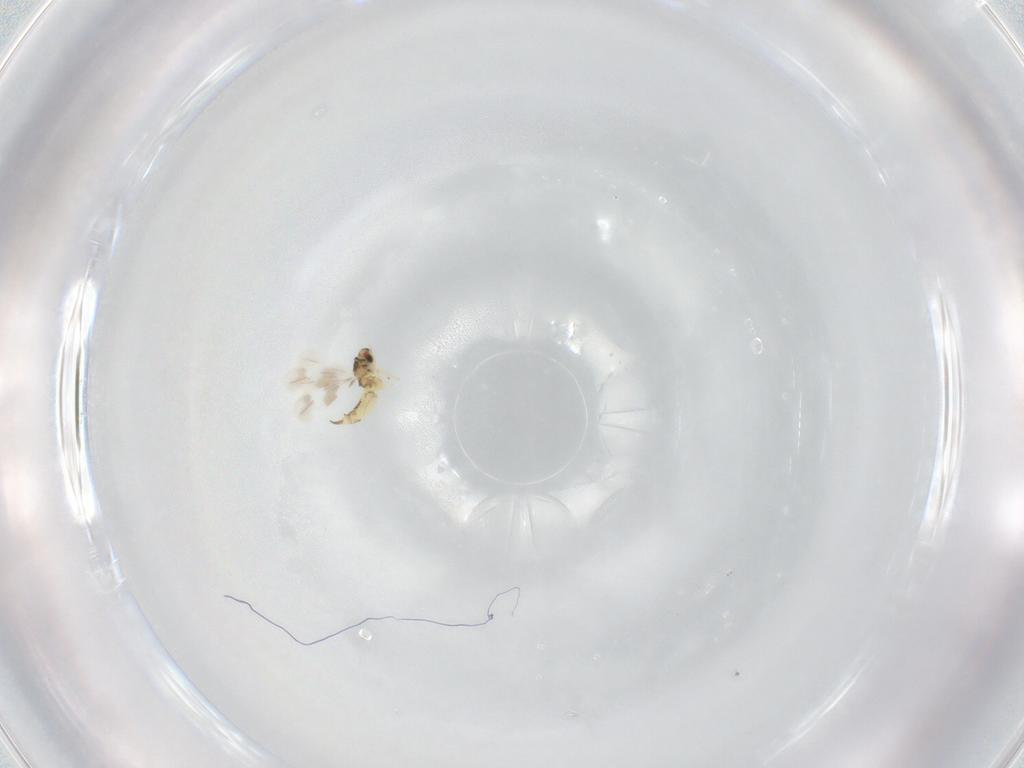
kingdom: Animalia
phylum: Arthropoda
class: Insecta
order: Hemiptera
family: Aleyrodidae
